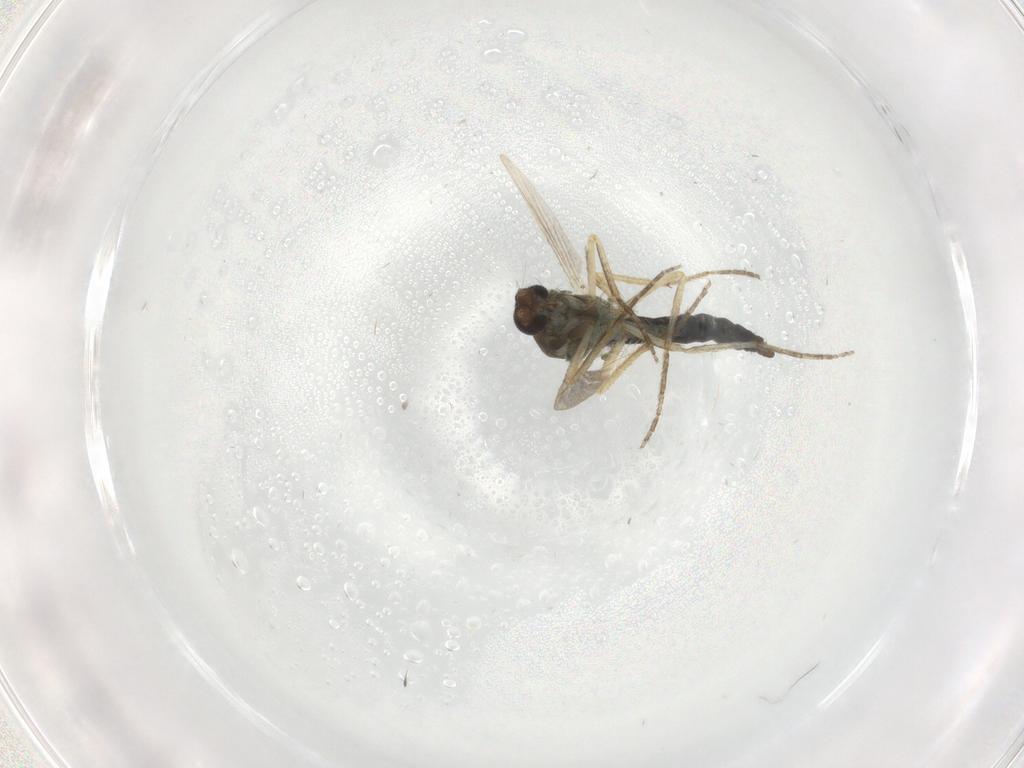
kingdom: Animalia
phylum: Arthropoda
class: Insecta
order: Diptera
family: Ceratopogonidae
